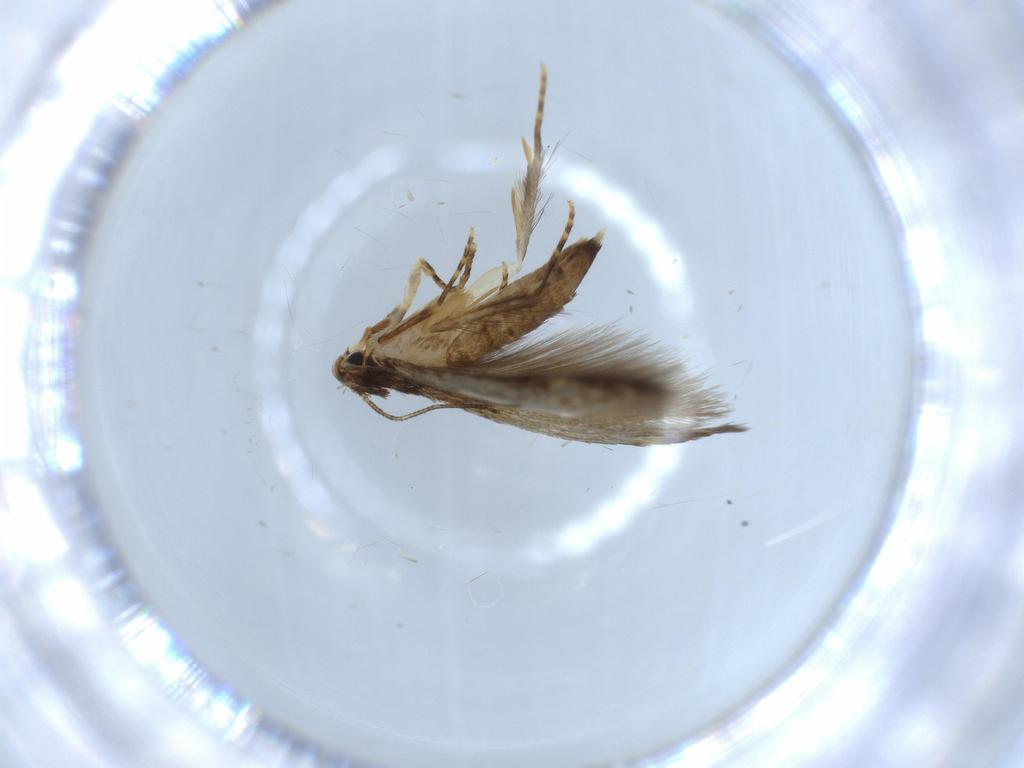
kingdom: Animalia
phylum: Arthropoda
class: Insecta
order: Lepidoptera
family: Tineidae
